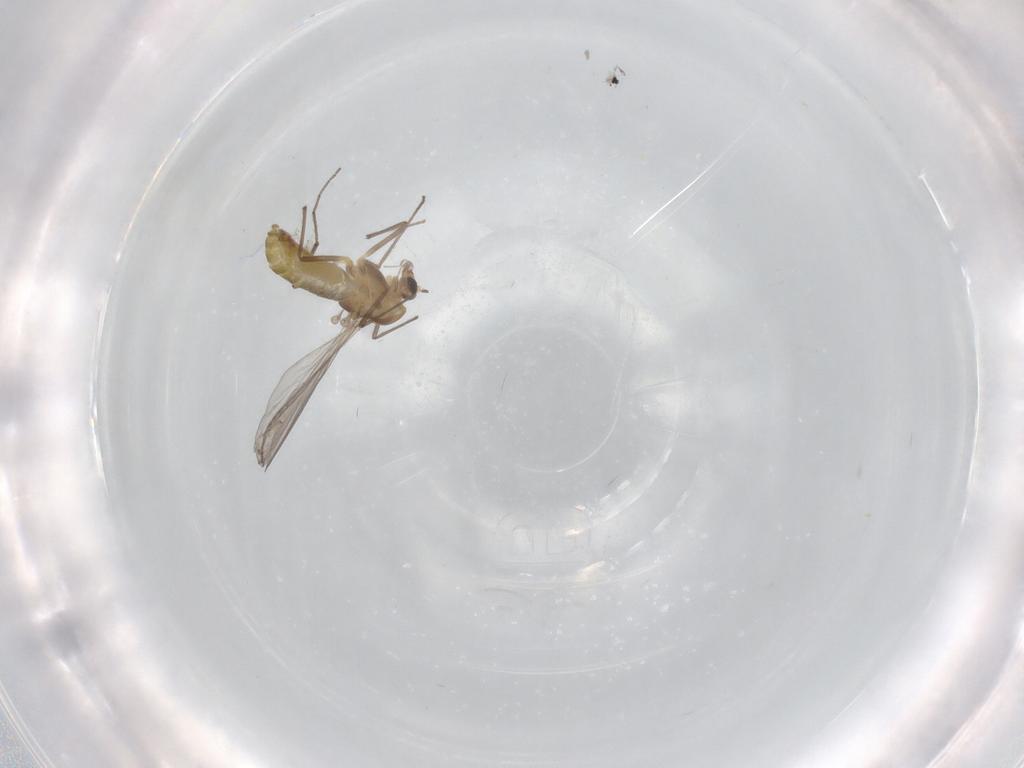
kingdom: Animalia
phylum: Arthropoda
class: Insecta
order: Diptera
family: Chironomidae
